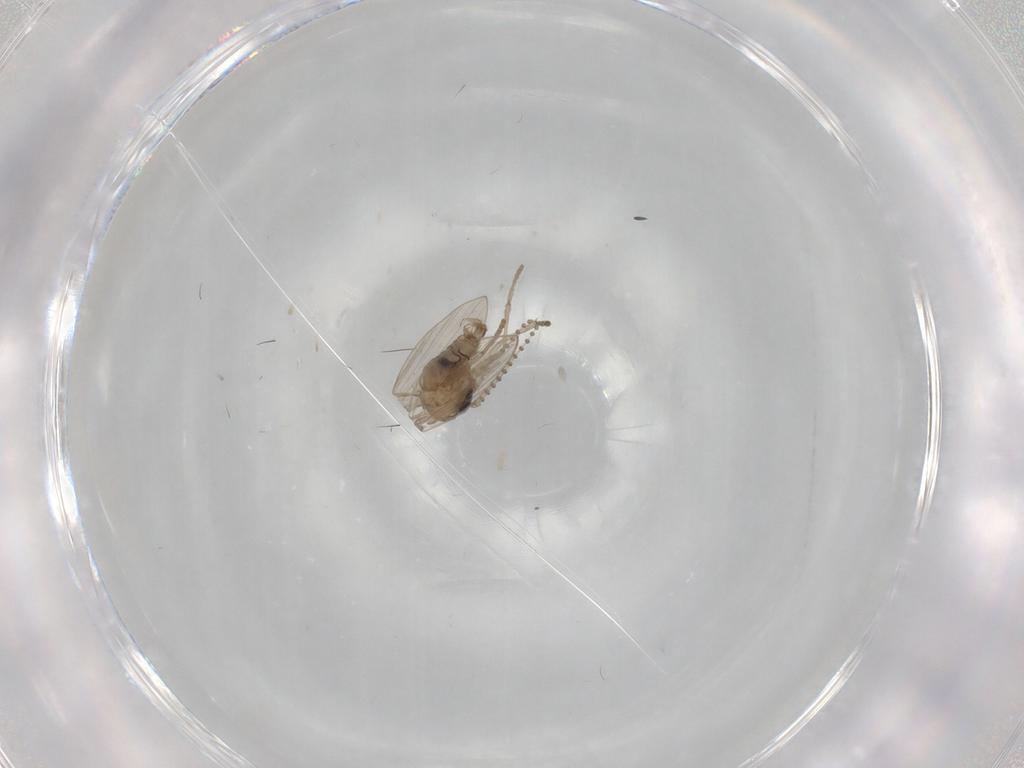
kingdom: Animalia
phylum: Arthropoda
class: Insecta
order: Diptera
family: Psychodidae
